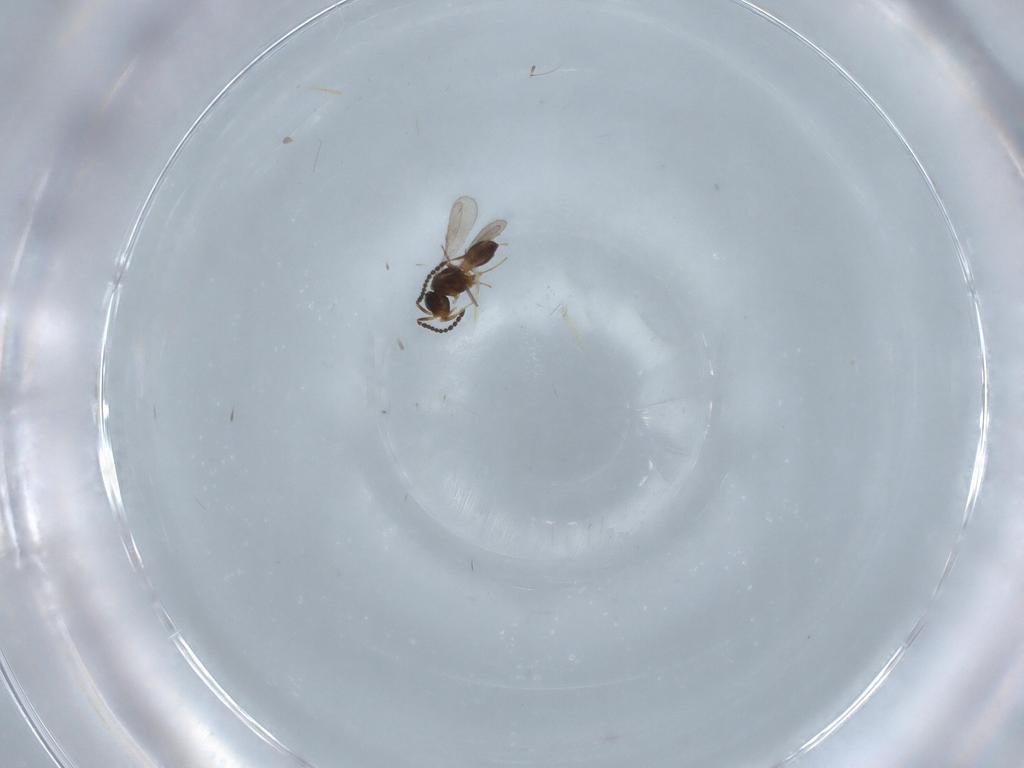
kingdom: Animalia
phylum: Arthropoda
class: Insecta
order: Hymenoptera
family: Scelionidae
